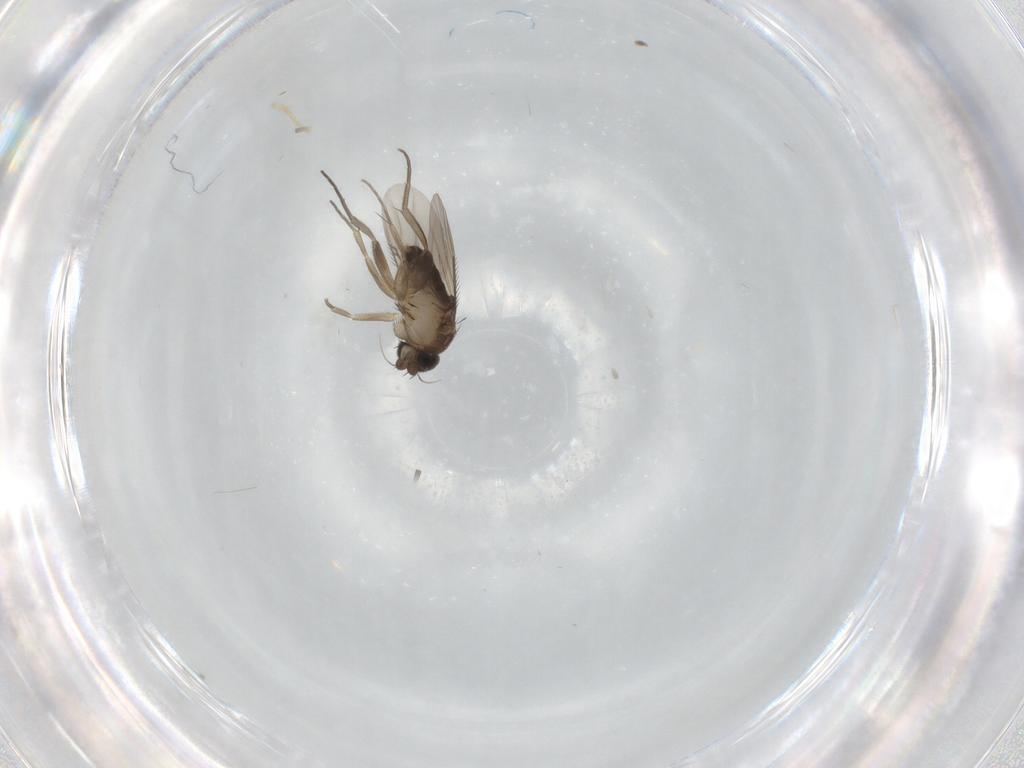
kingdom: Animalia
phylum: Arthropoda
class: Insecta
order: Diptera
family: Phoridae
